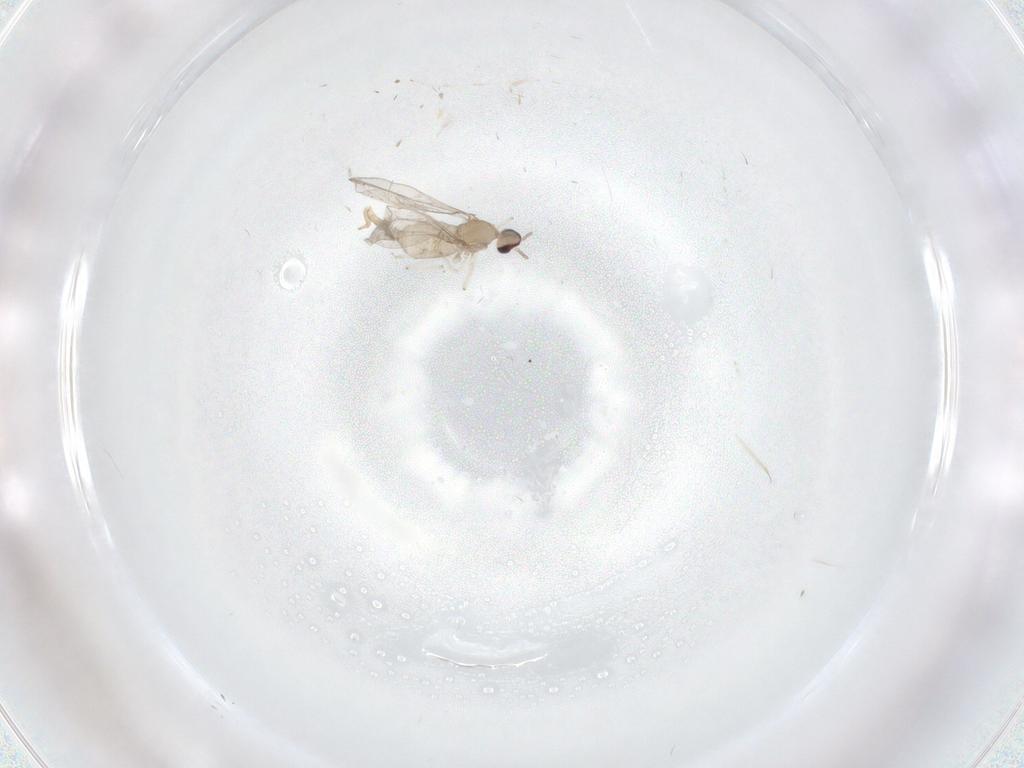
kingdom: Animalia
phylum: Arthropoda
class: Insecta
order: Diptera
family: Cecidomyiidae
